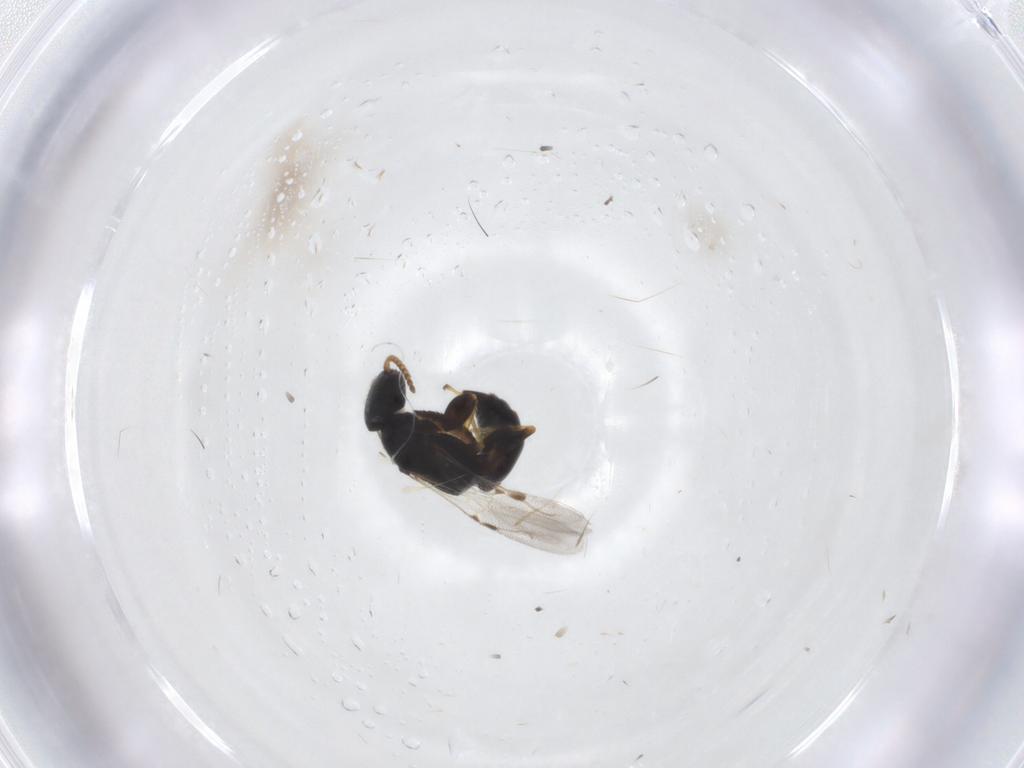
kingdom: Animalia
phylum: Arthropoda
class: Insecta
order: Hymenoptera
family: Bethylidae
